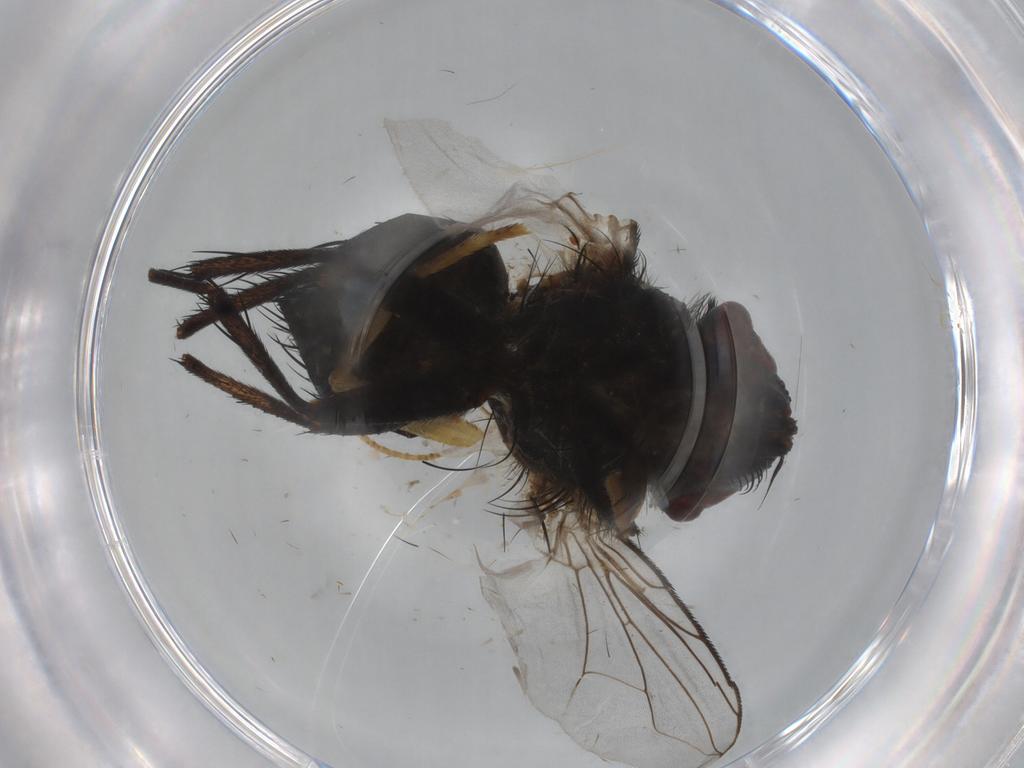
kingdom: Animalia
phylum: Arthropoda
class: Insecta
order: Diptera
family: Tachinidae
